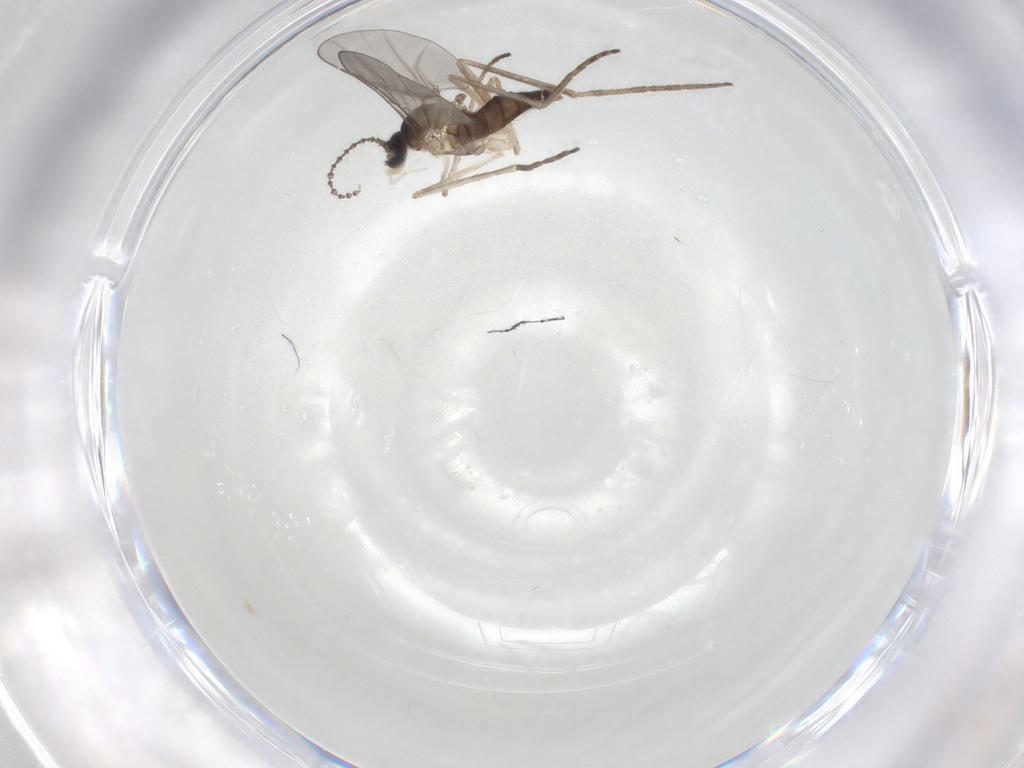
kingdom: Animalia
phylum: Arthropoda
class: Insecta
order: Diptera
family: Cecidomyiidae
